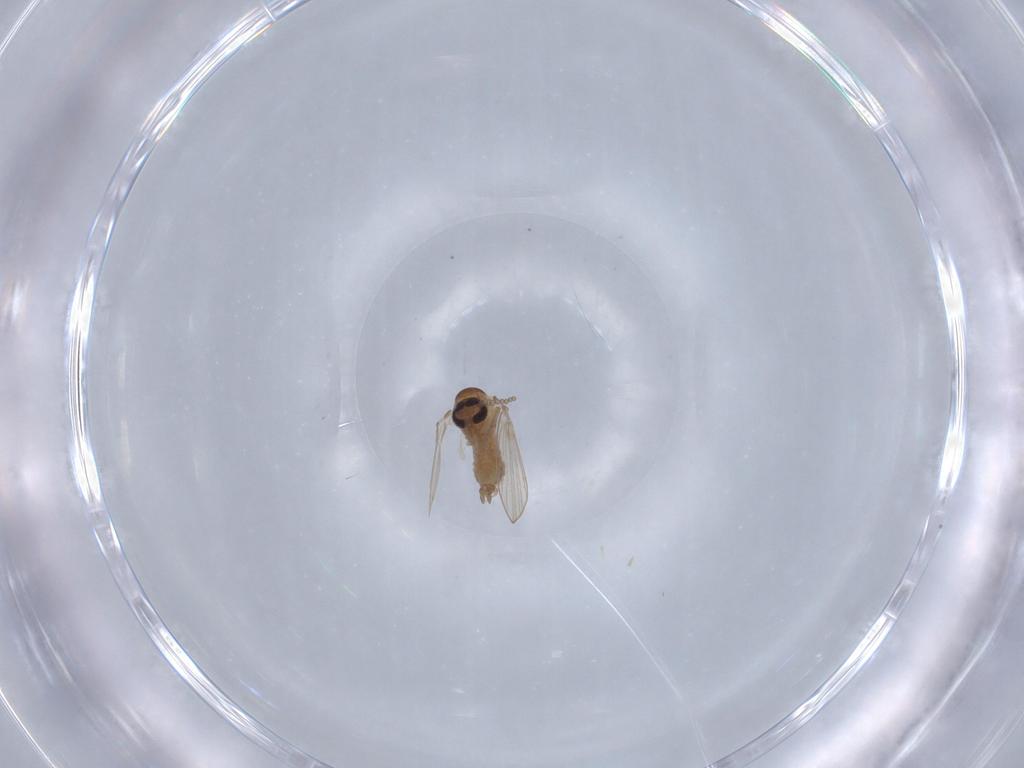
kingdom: Animalia
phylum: Arthropoda
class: Insecta
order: Diptera
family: Psychodidae
